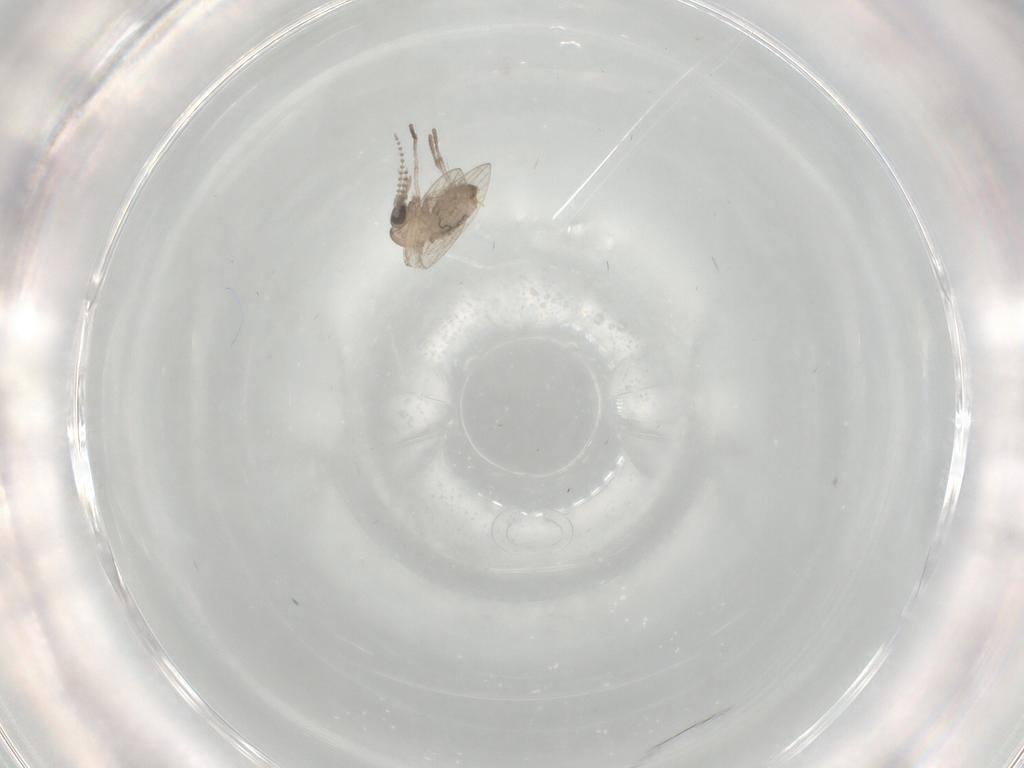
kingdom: Animalia
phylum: Arthropoda
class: Insecta
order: Diptera
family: Psychodidae
